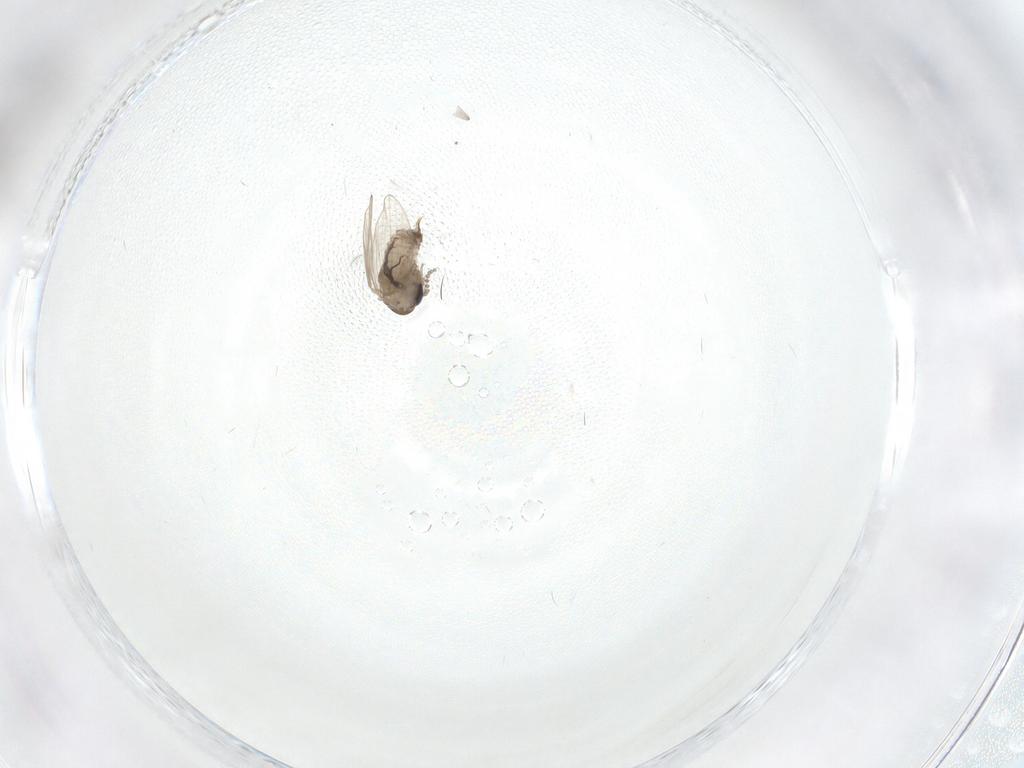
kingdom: Animalia
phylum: Arthropoda
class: Insecta
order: Diptera
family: Psychodidae
